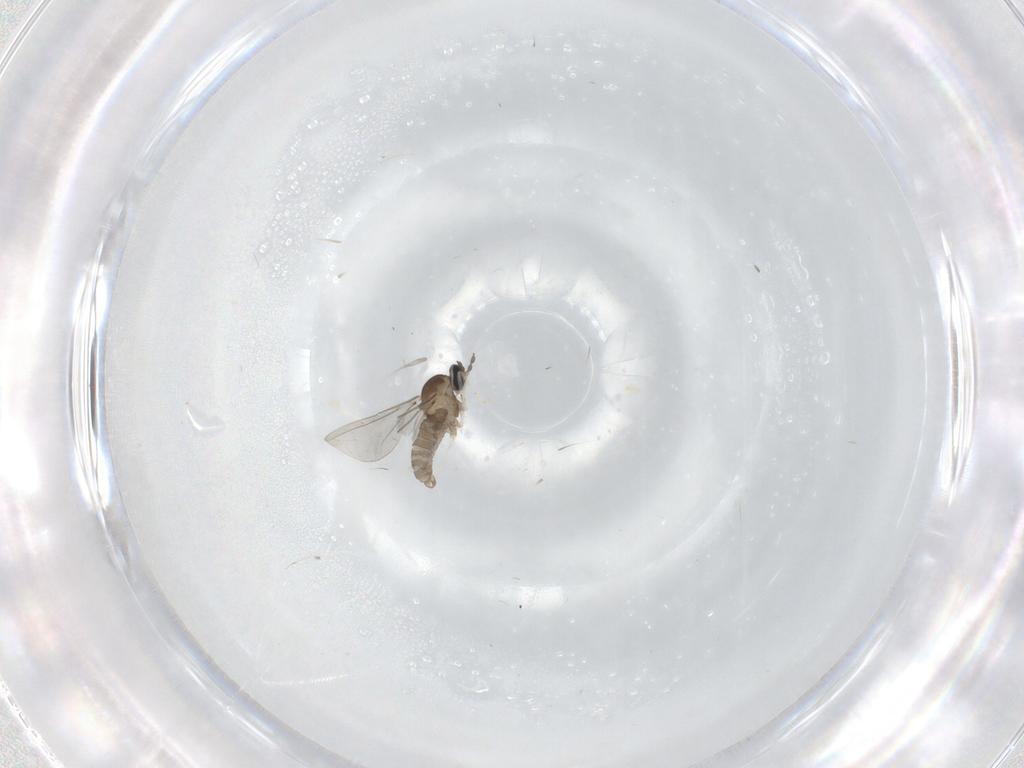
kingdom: Animalia
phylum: Arthropoda
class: Insecta
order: Diptera
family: Cecidomyiidae
